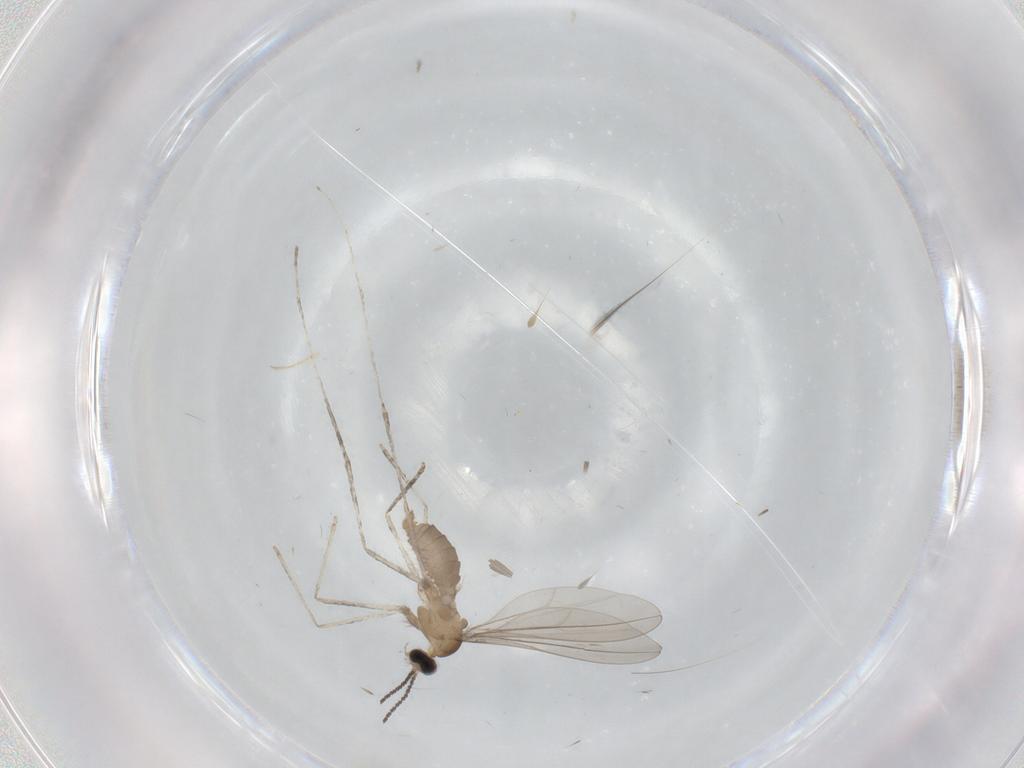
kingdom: Animalia
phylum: Arthropoda
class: Insecta
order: Diptera
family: Cecidomyiidae
